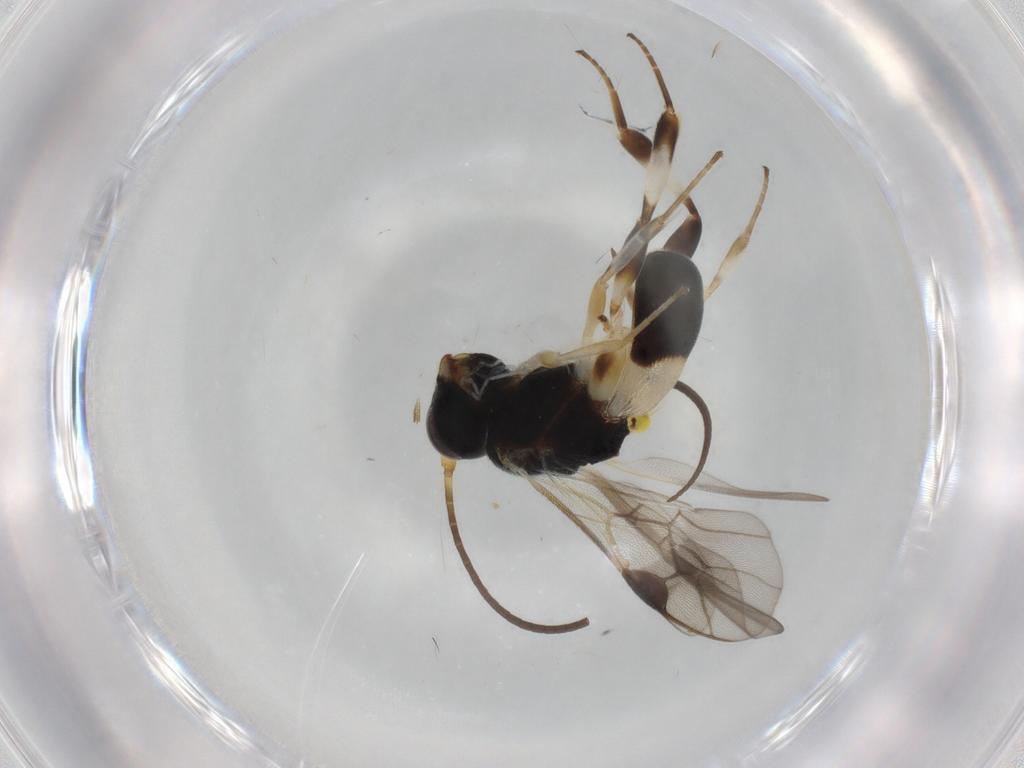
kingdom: Animalia
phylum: Arthropoda
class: Insecta
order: Hymenoptera
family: Braconidae
